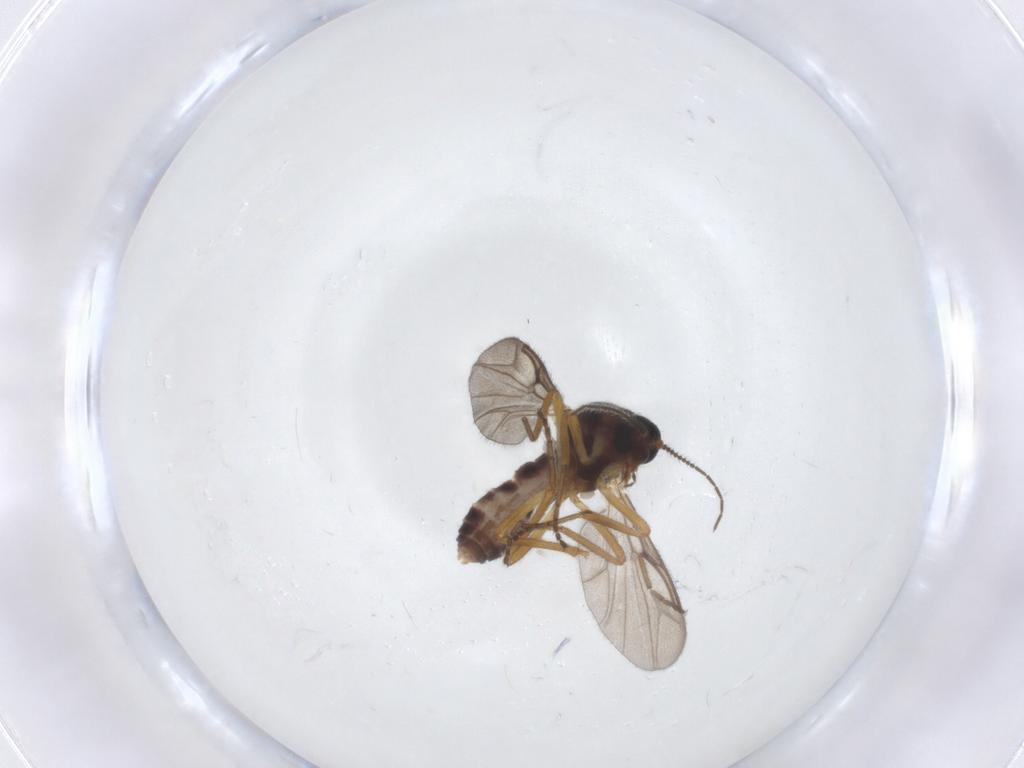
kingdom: Animalia
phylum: Arthropoda
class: Insecta
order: Diptera
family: Ceratopogonidae
